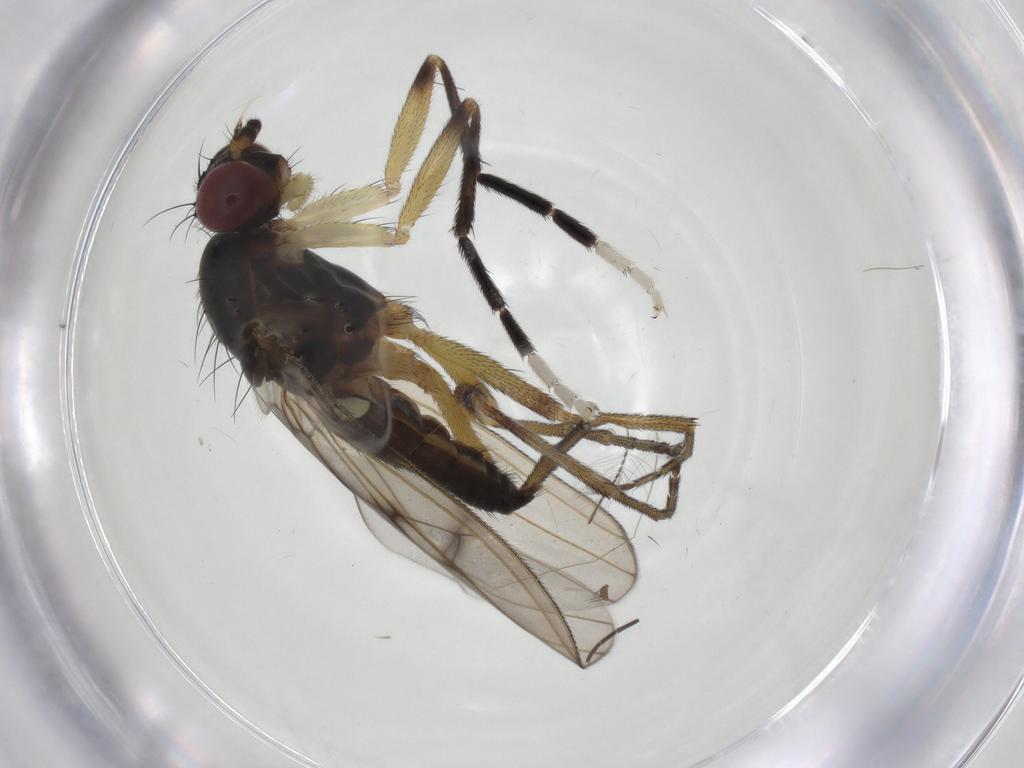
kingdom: Animalia
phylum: Arthropoda
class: Insecta
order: Diptera
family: Sciomyzidae
